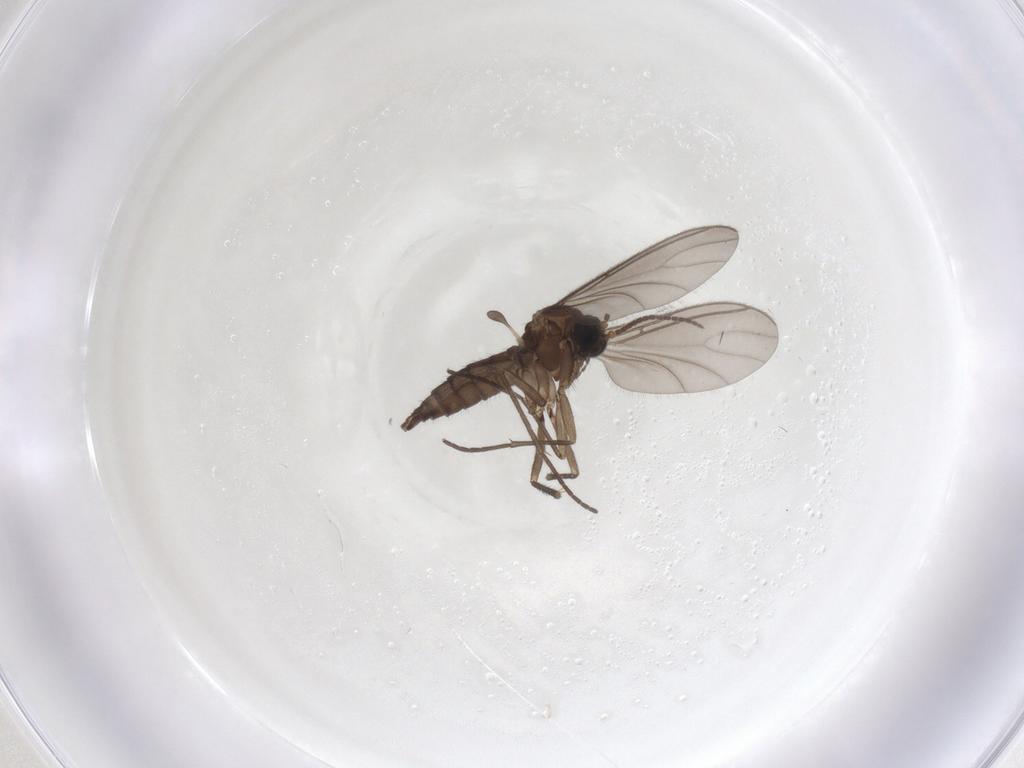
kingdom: Animalia
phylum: Arthropoda
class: Insecta
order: Diptera
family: Sciaridae
